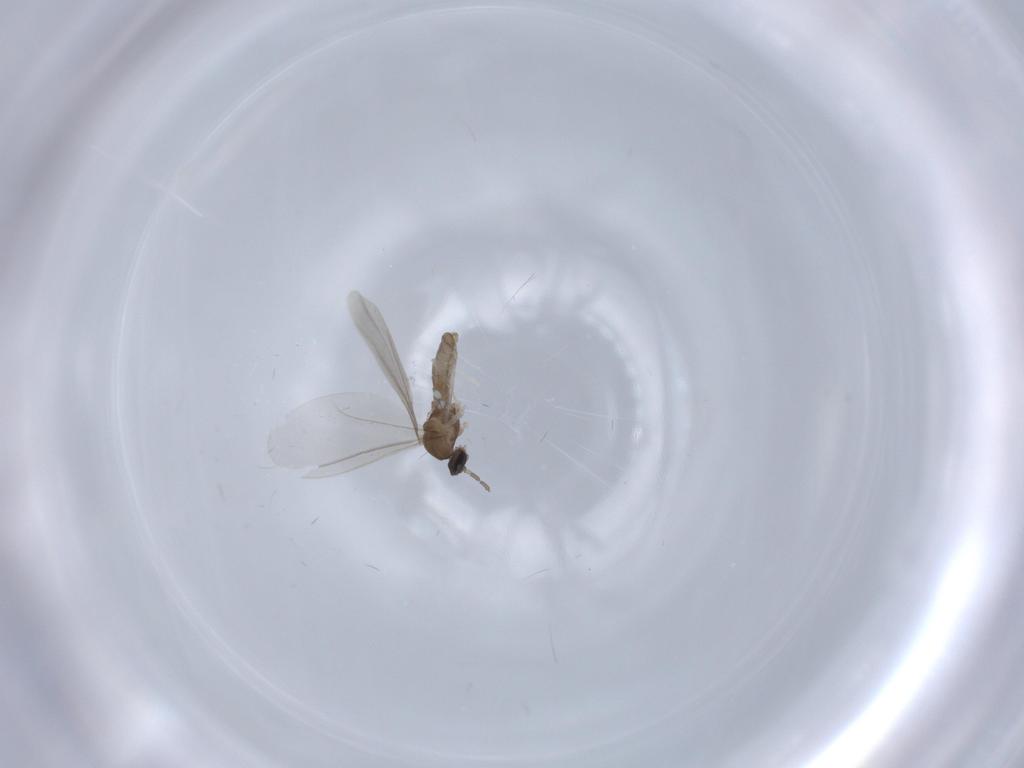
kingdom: Animalia
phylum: Arthropoda
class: Insecta
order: Diptera
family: Cecidomyiidae
